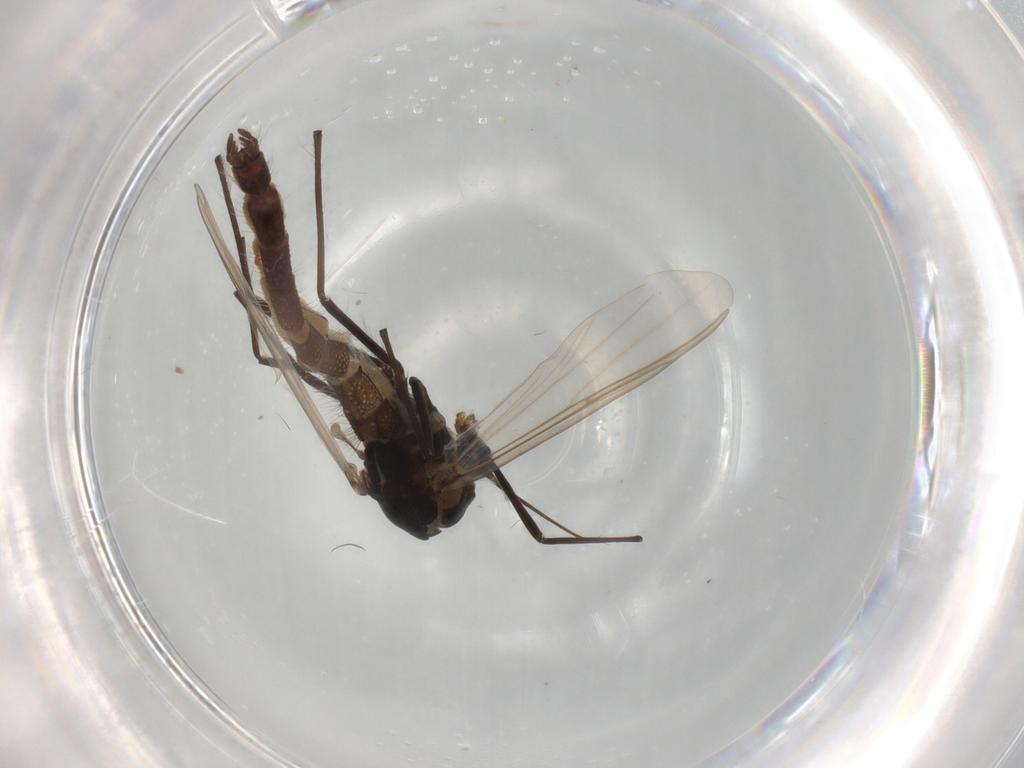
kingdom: Animalia
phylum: Arthropoda
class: Insecta
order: Diptera
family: Chironomidae
